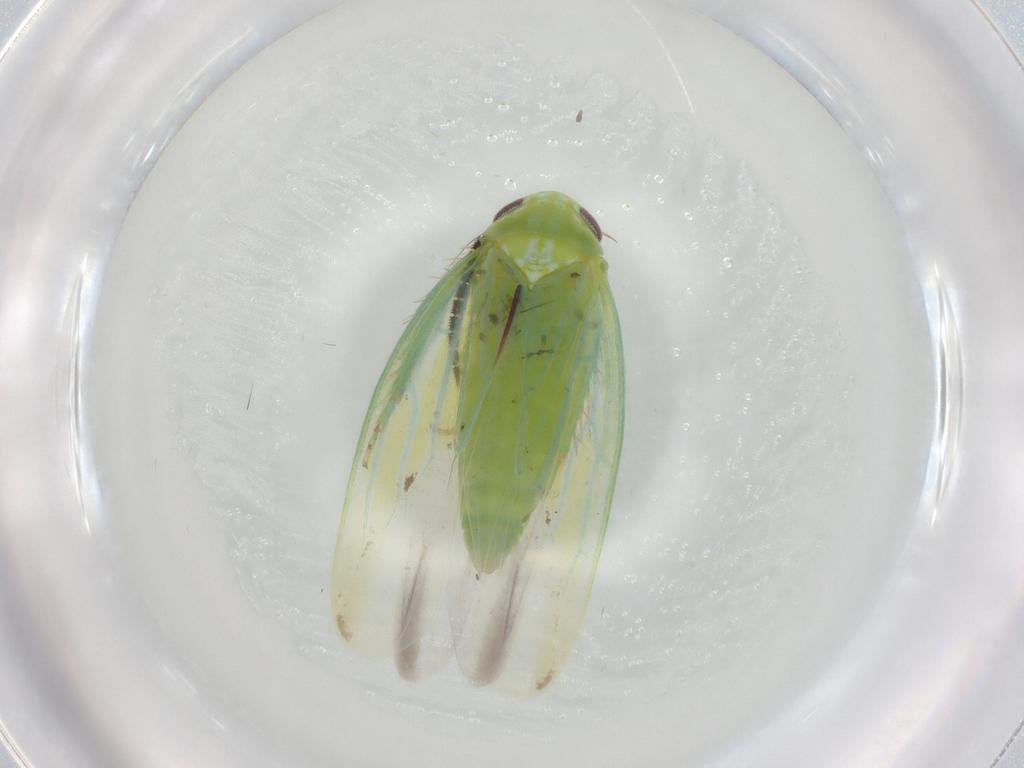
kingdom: Animalia
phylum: Arthropoda
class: Insecta
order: Hemiptera
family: Cicadellidae
